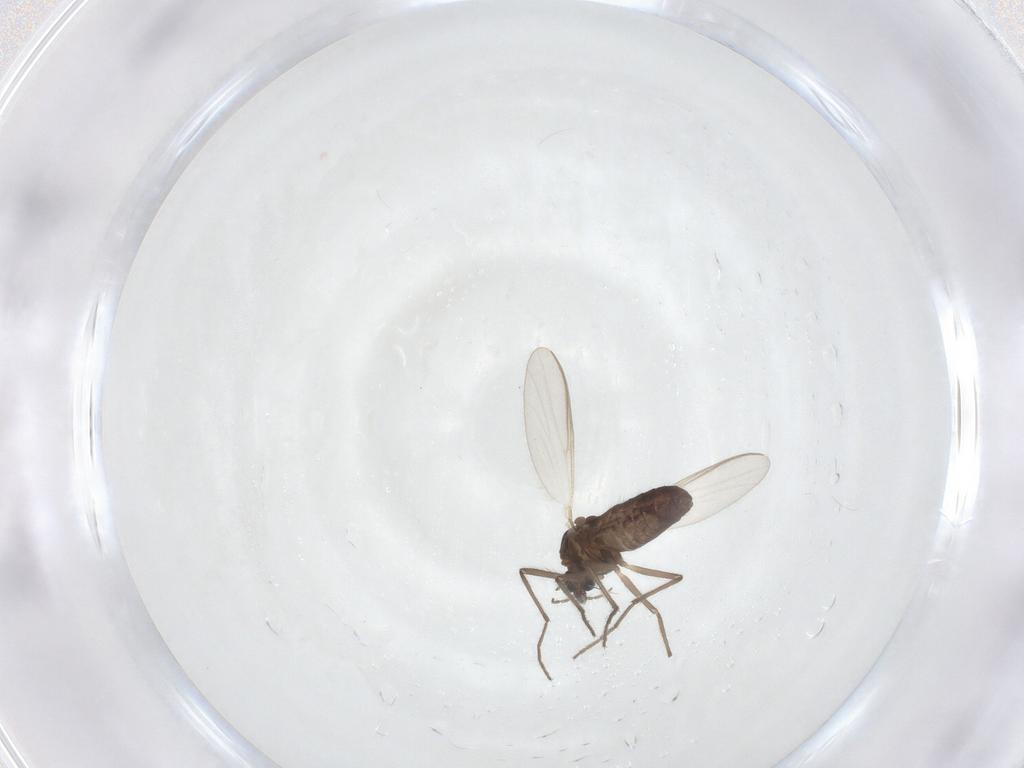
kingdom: Animalia
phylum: Arthropoda
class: Insecta
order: Diptera
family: Chironomidae
